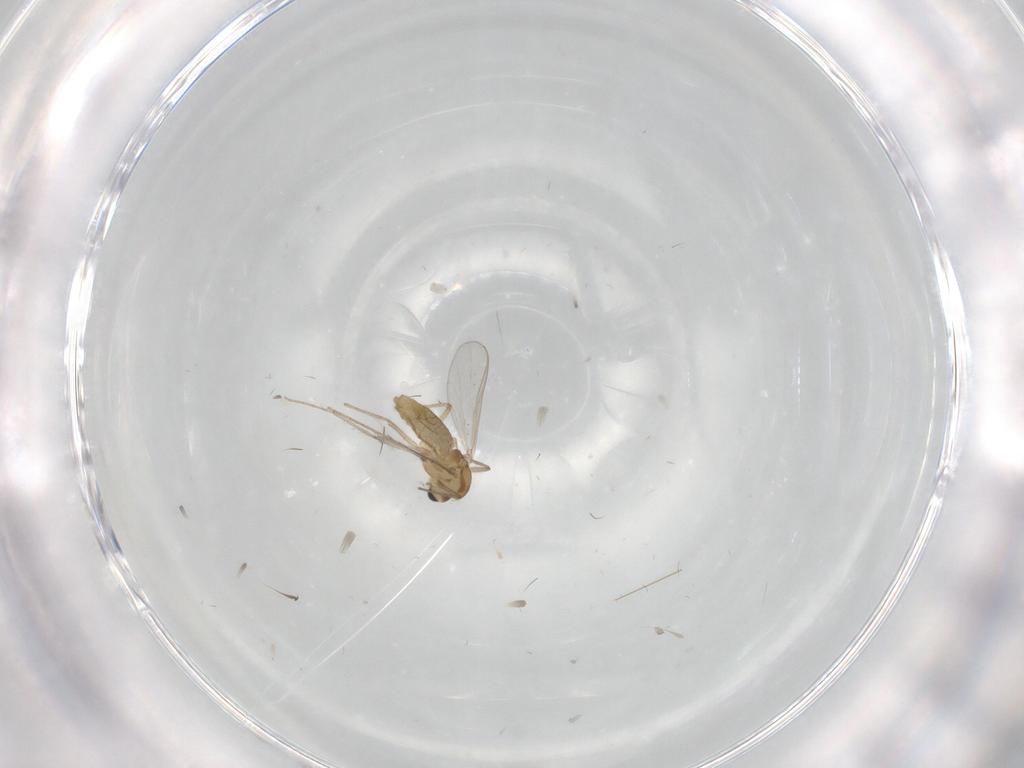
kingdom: Animalia
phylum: Arthropoda
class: Insecta
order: Diptera
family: Chironomidae
